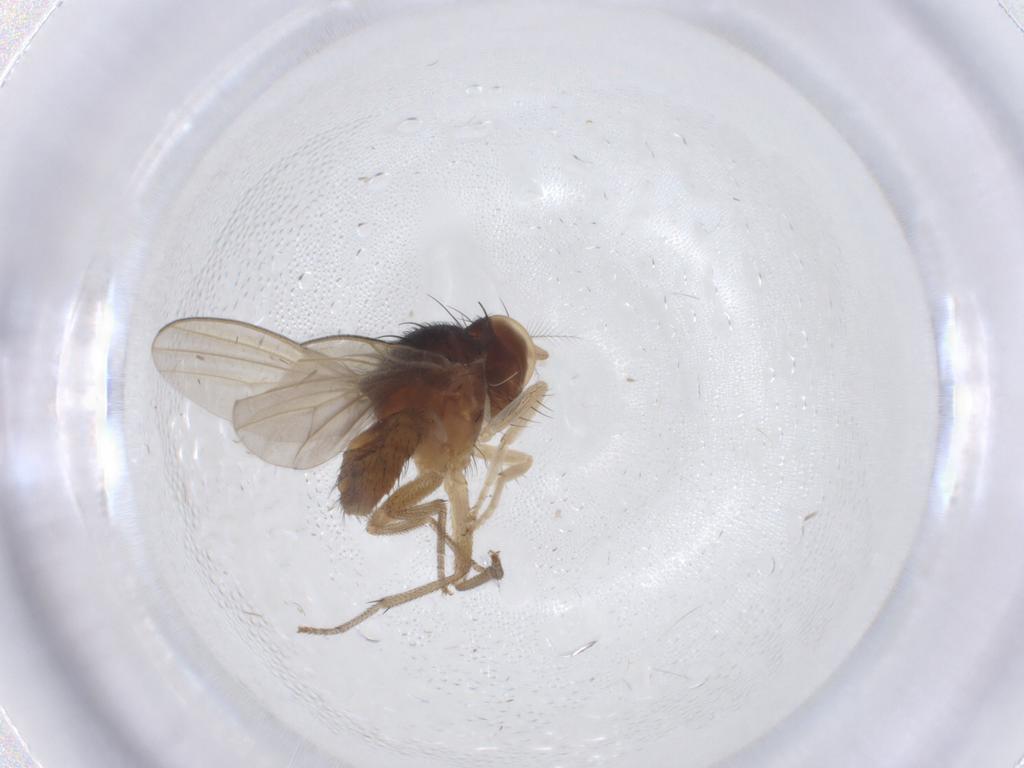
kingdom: Animalia
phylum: Arthropoda
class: Insecta
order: Diptera
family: Lauxaniidae
